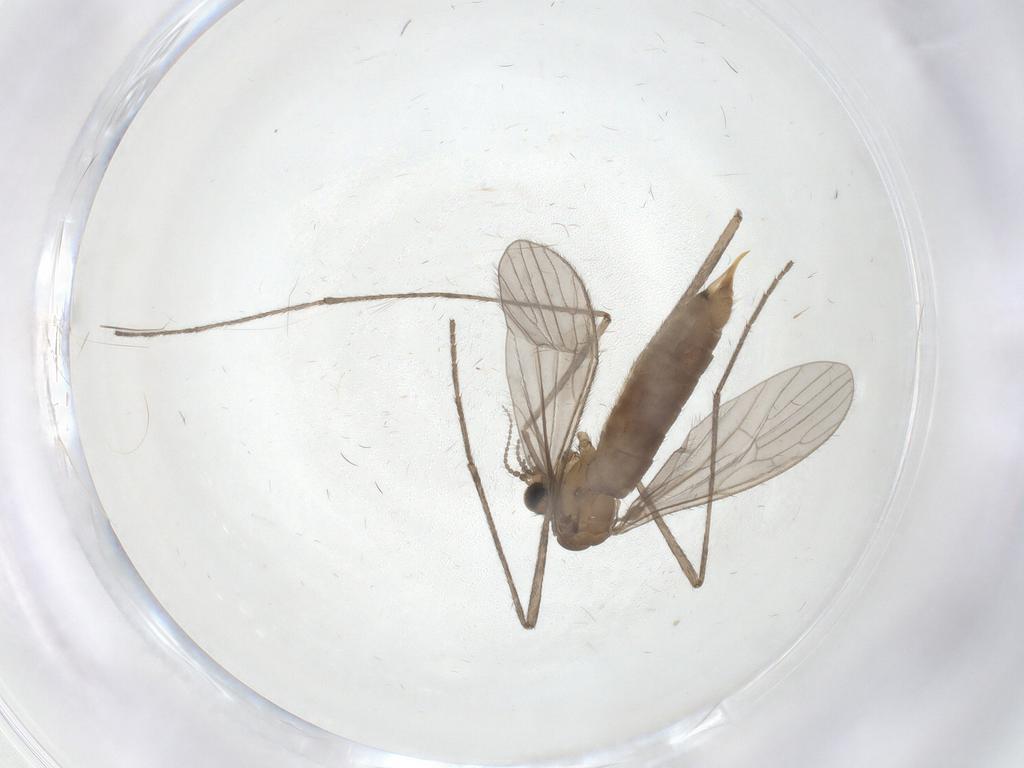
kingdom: Animalia
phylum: Arthropoda
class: Insecta
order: Diptera
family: Limoniidae
